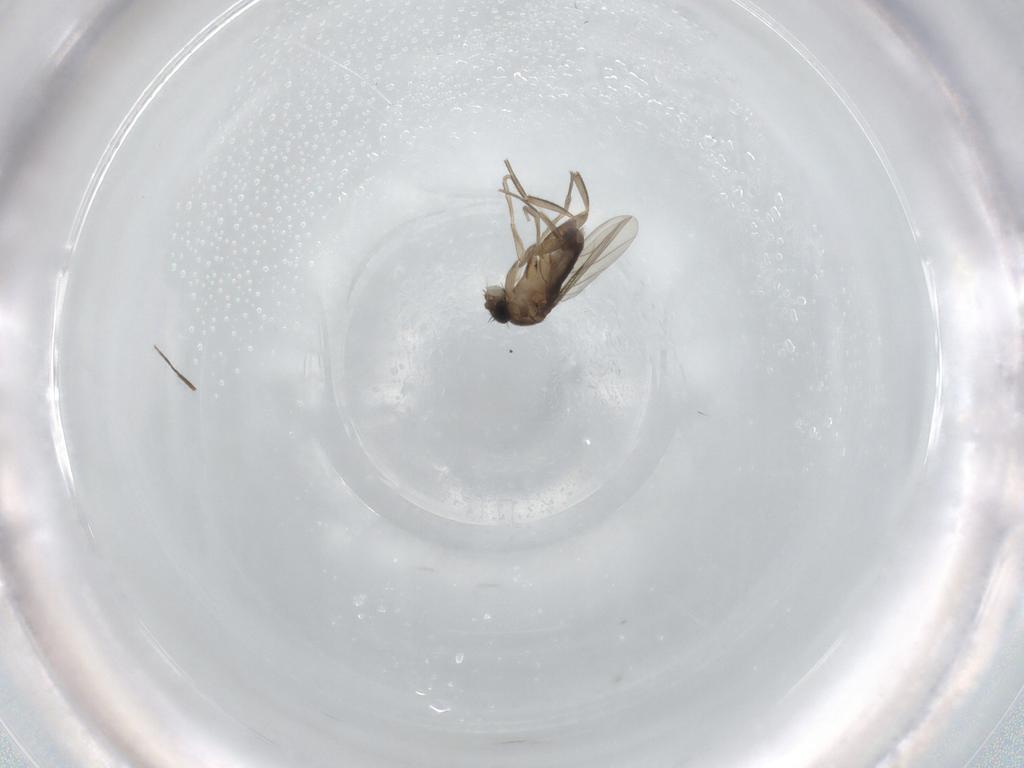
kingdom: Animalia
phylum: Arthropoda
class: Insecta
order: Diptera
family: Phoridae
